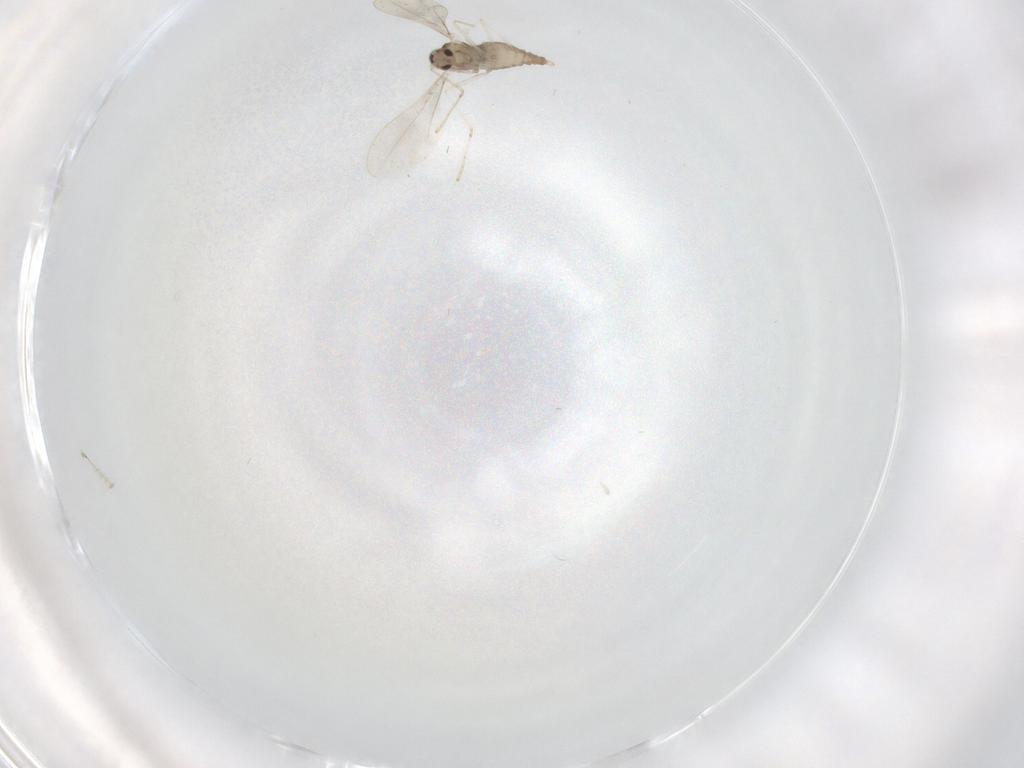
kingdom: Animalia
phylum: Arthropoda
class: Insecta
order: Diptera
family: Cecidomyiidae
